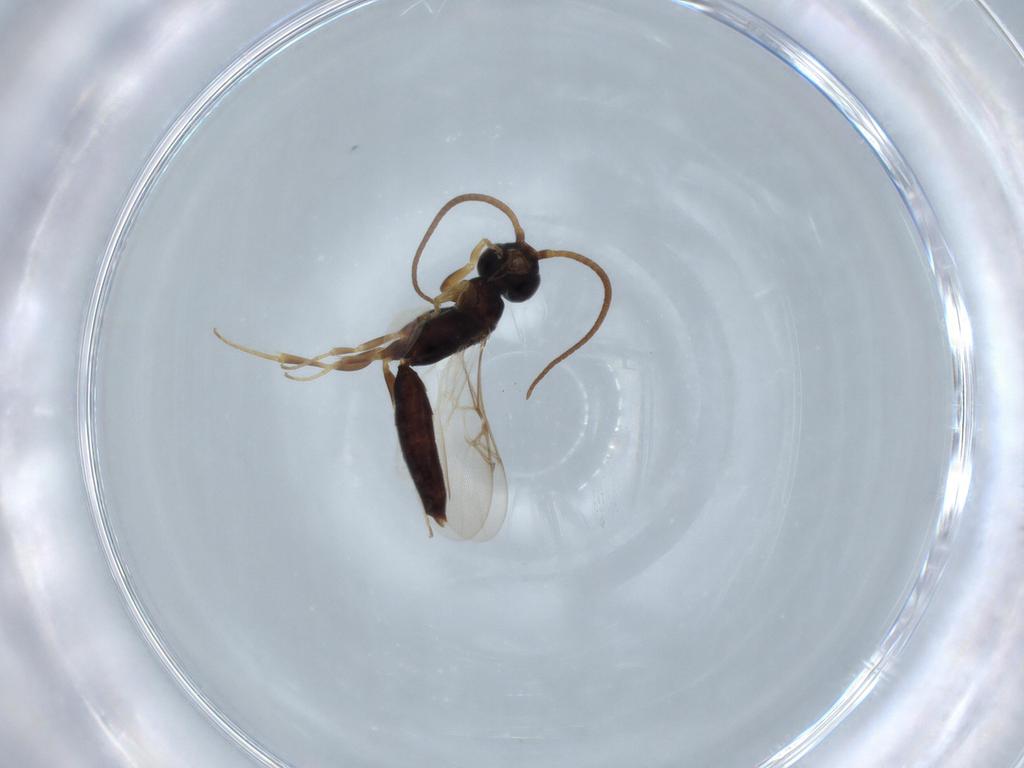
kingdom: Animalia
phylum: Arthropoda
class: Insecta
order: Hymenoptera
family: Sclerogibbidae
